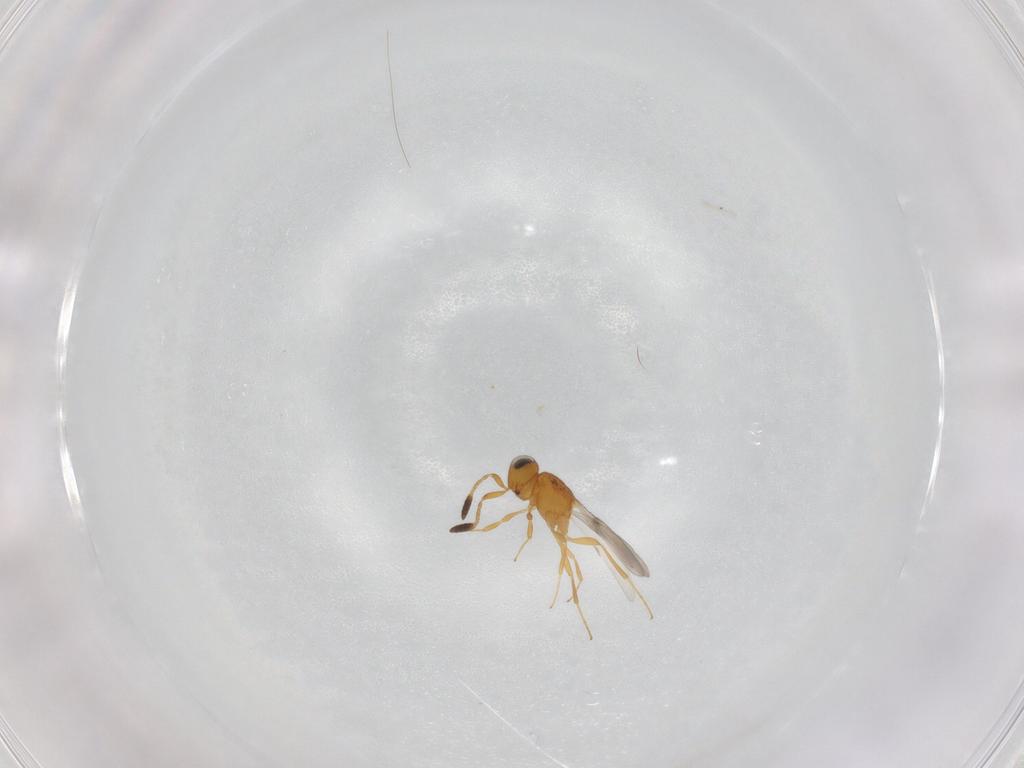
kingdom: Animalia
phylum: Arthropoda
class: Insecta
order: Hymenoptera
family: Scelionidae
